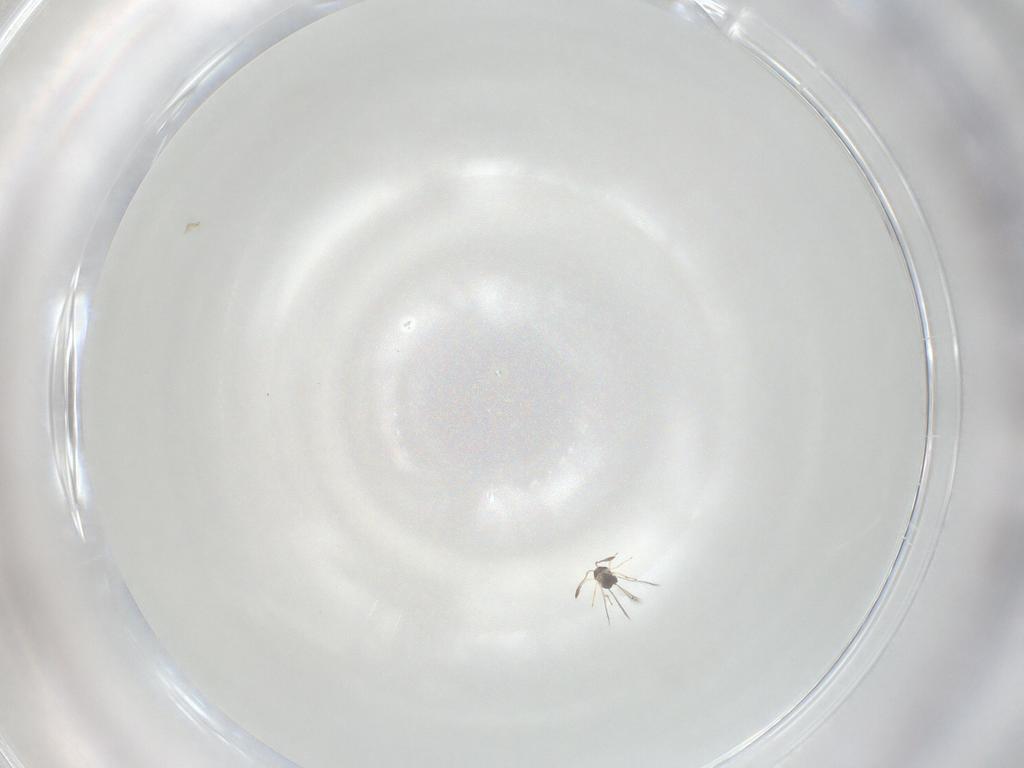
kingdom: Animalia
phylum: Arthropoda
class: Insecta
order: Hymenoptera
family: Mymaridae
